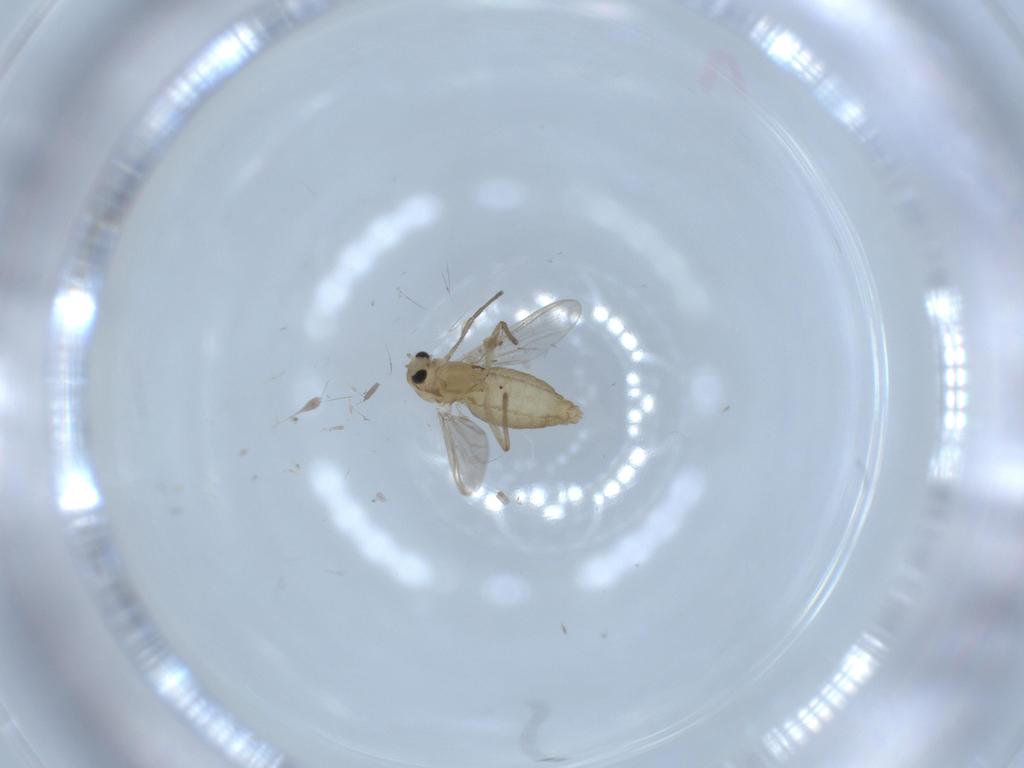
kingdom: Animalia
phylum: Arthropoda
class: Insecta
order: Diptera
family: Chironomidae
